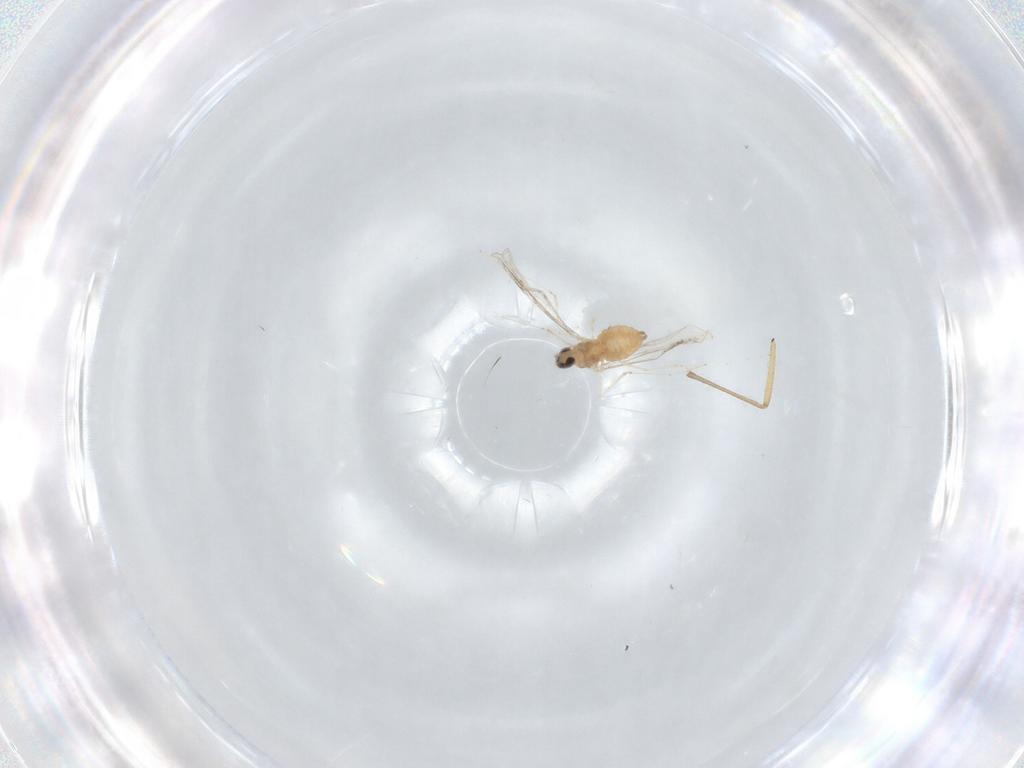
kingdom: Animalia
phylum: Arthropoda
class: Insecta
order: Diptera
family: Cecidomyiidae
